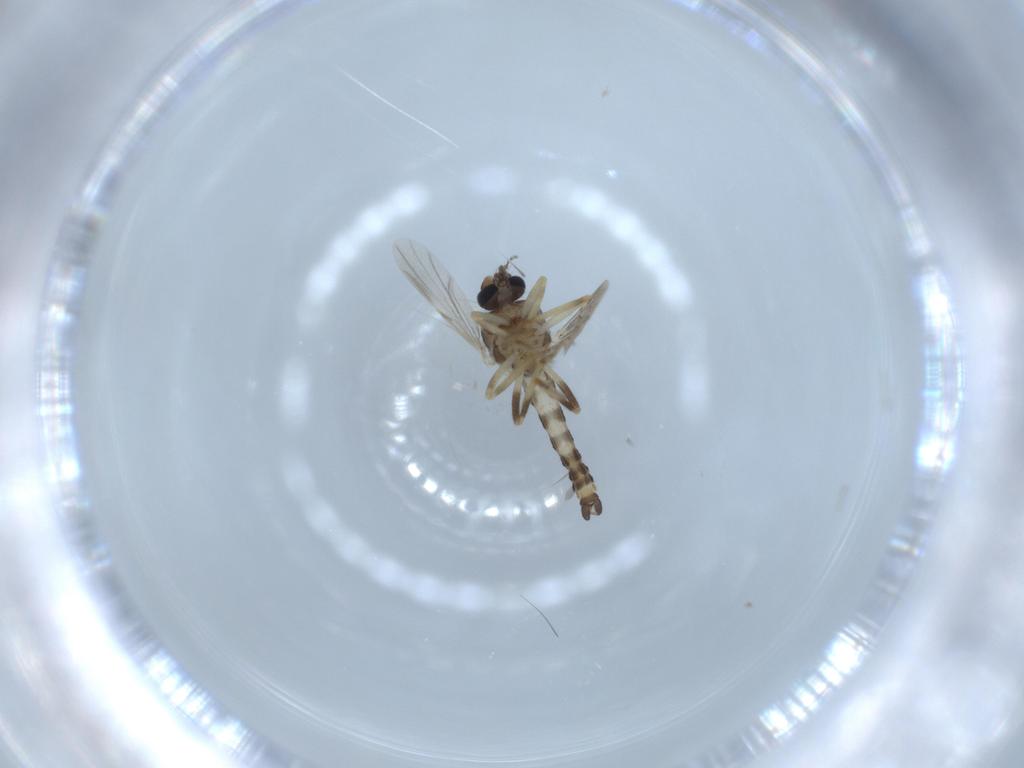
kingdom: Animalia
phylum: Arthropoda
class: Insecta
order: Diptera
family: Ceratopogonidae
